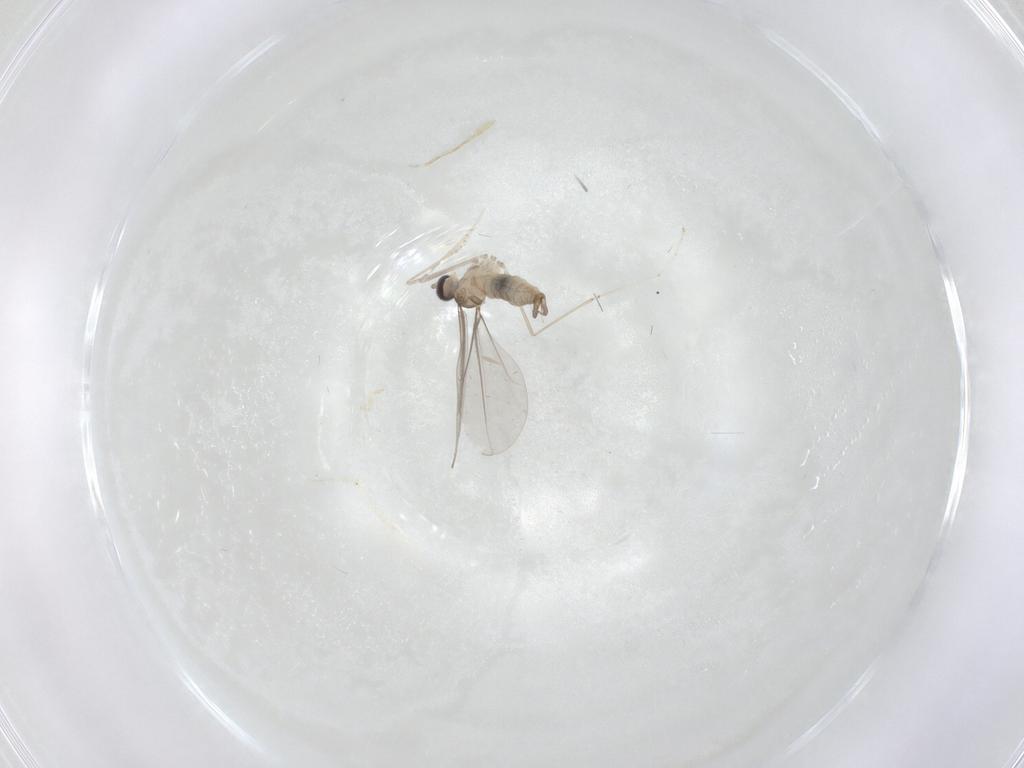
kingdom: Animalia
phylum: Arthropoda
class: Insecta
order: Diptera
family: Cecidomyiidae
